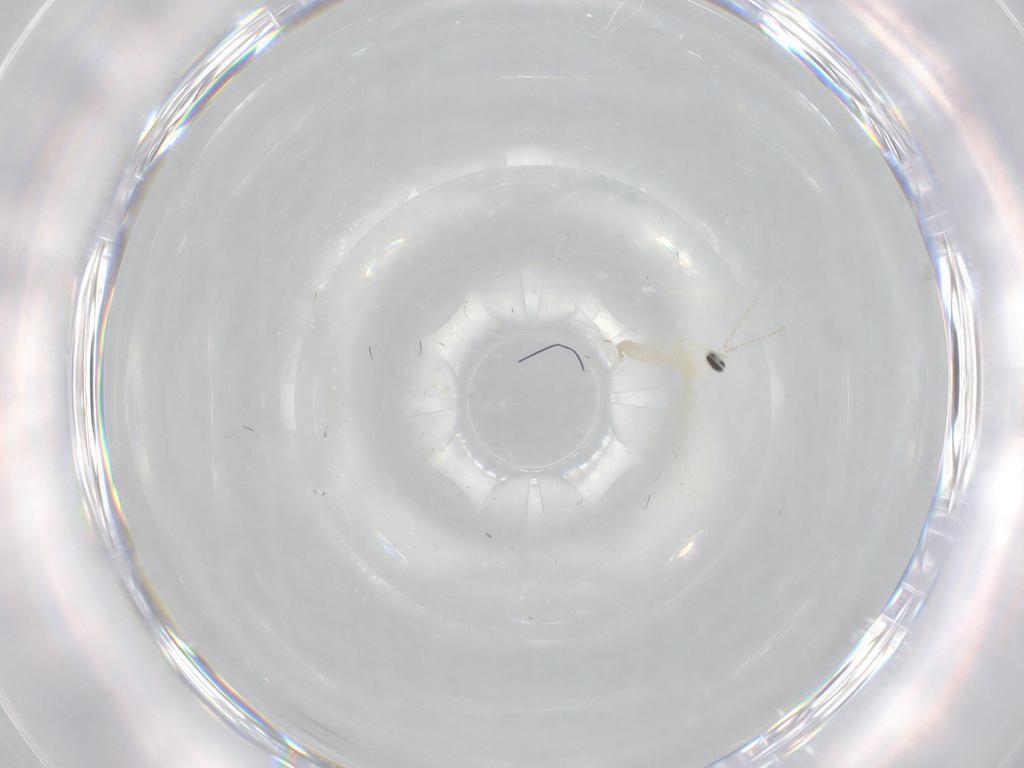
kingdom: Animalia
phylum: Arthropoda
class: Insecta
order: Diptera
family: Cecidomyiidae
